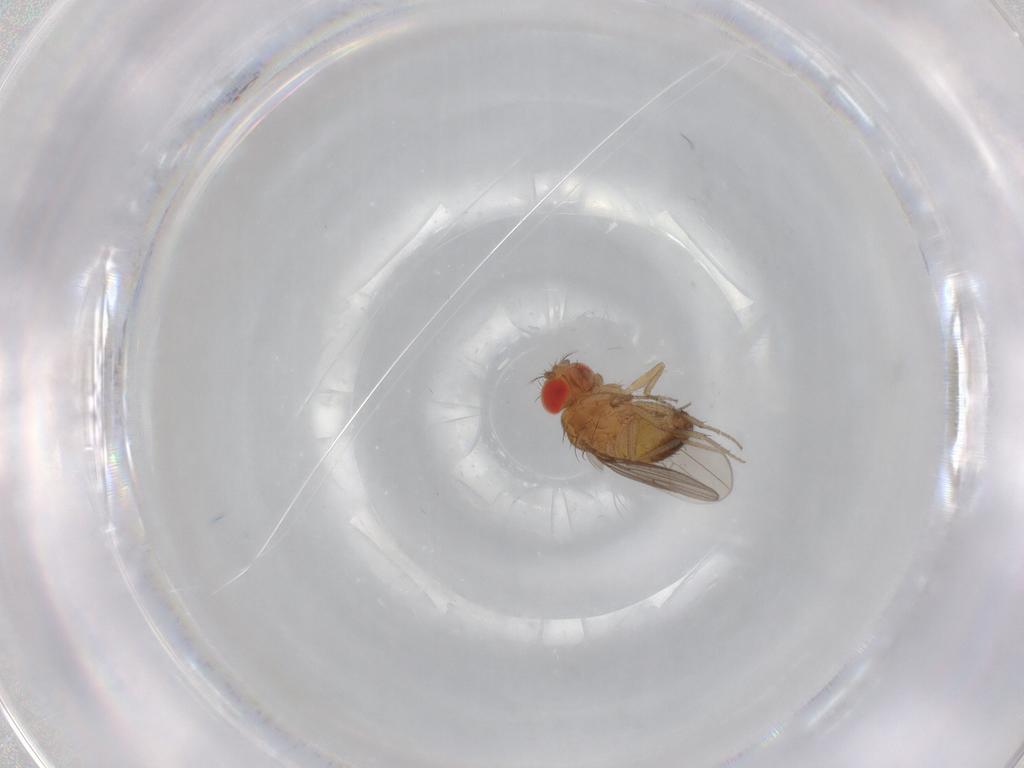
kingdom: Animalia
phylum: Arthropoda
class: Insecta
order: Diptera
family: Drosophilidae
